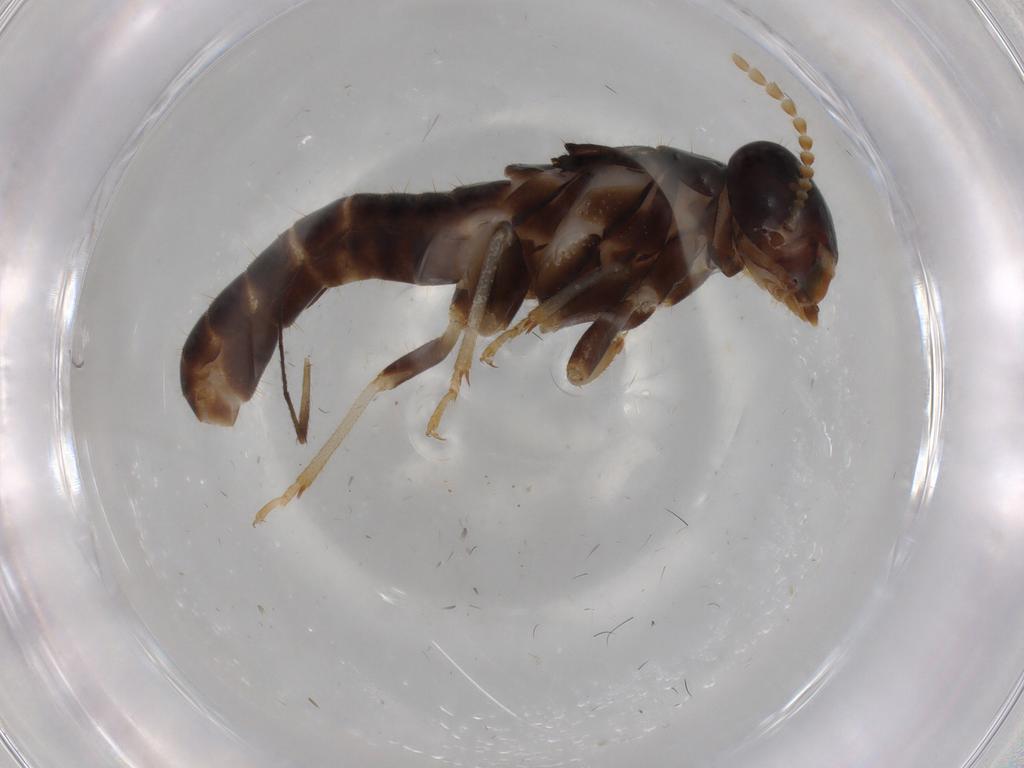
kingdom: Animalia
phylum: Arthropoda
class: Insecta
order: Blattodea
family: Kalotermitidae
